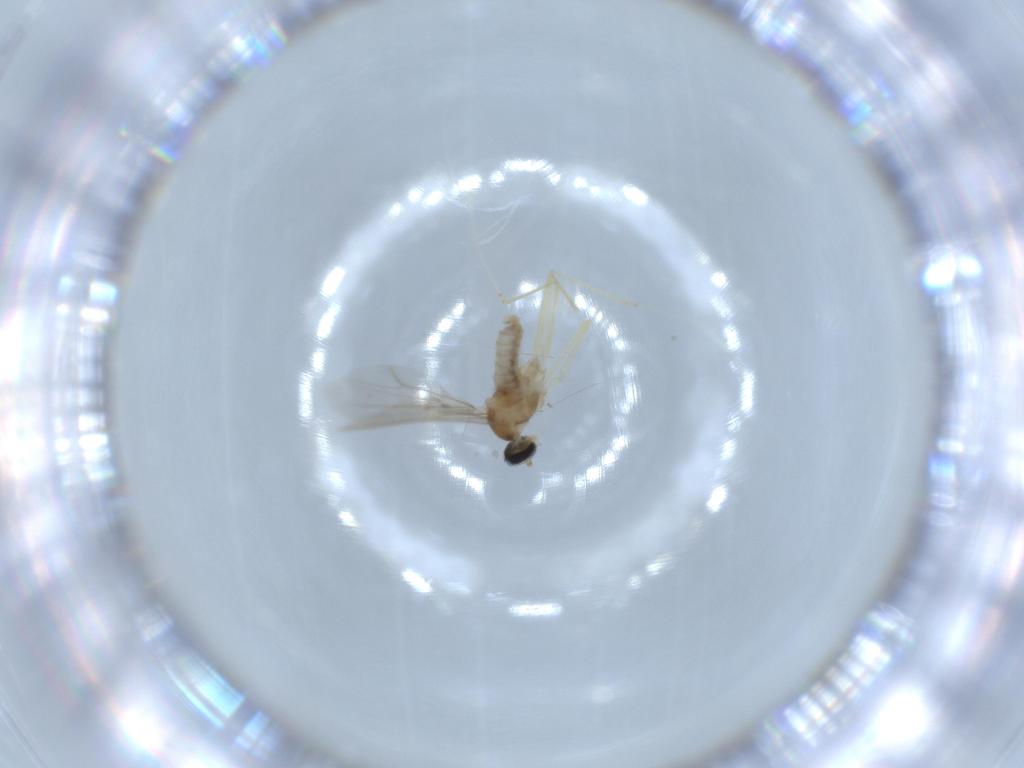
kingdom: Animalia
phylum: Arthropoda
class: Insecta
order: Diptera
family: Cecidomyiidae
